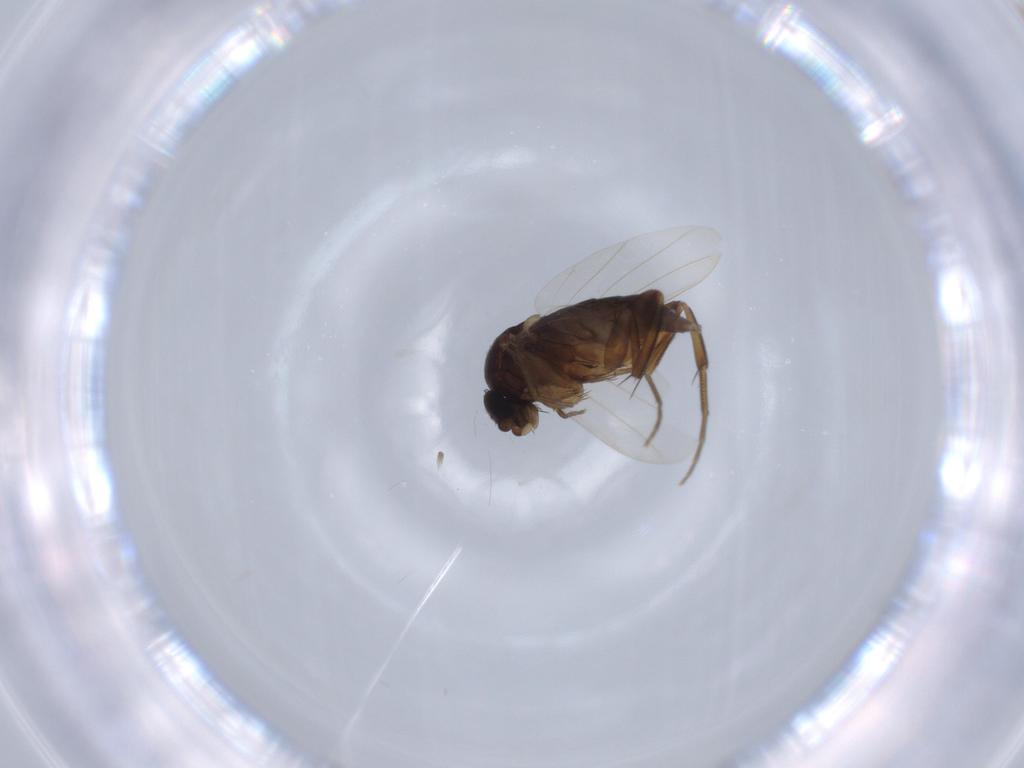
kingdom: Animalia
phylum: Arthropoda
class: Insecta
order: Diptera
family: Phoridae
